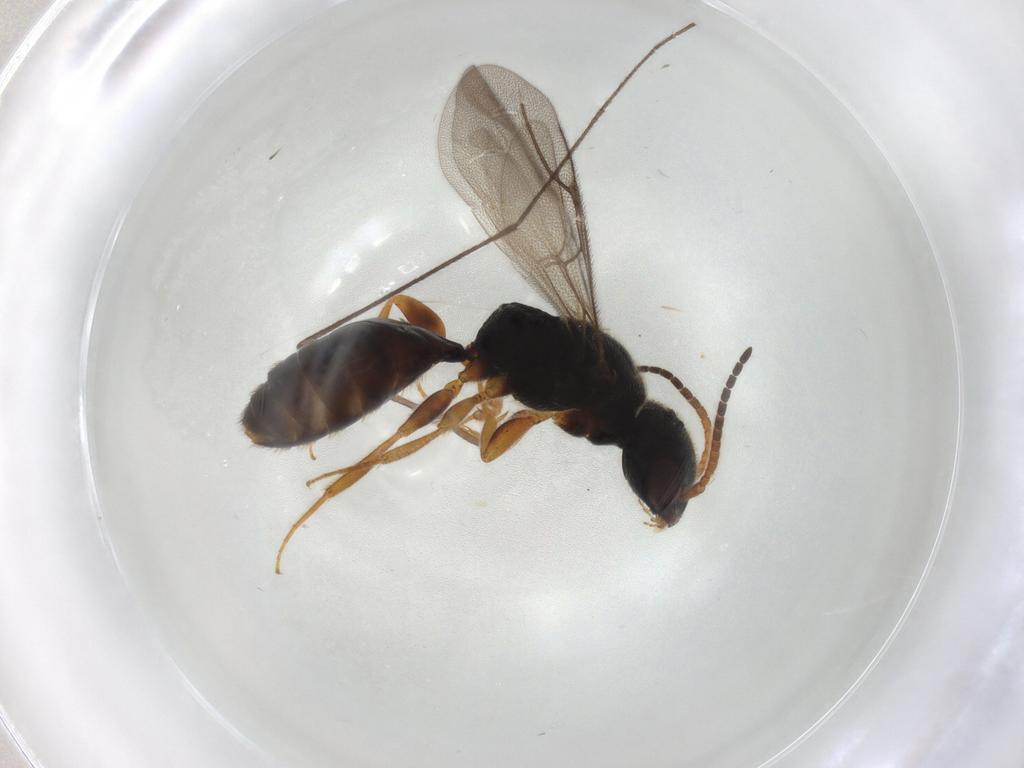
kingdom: Animalia
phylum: Arthropoda
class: Insecta
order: Hymenoptera
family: Bethylidae
